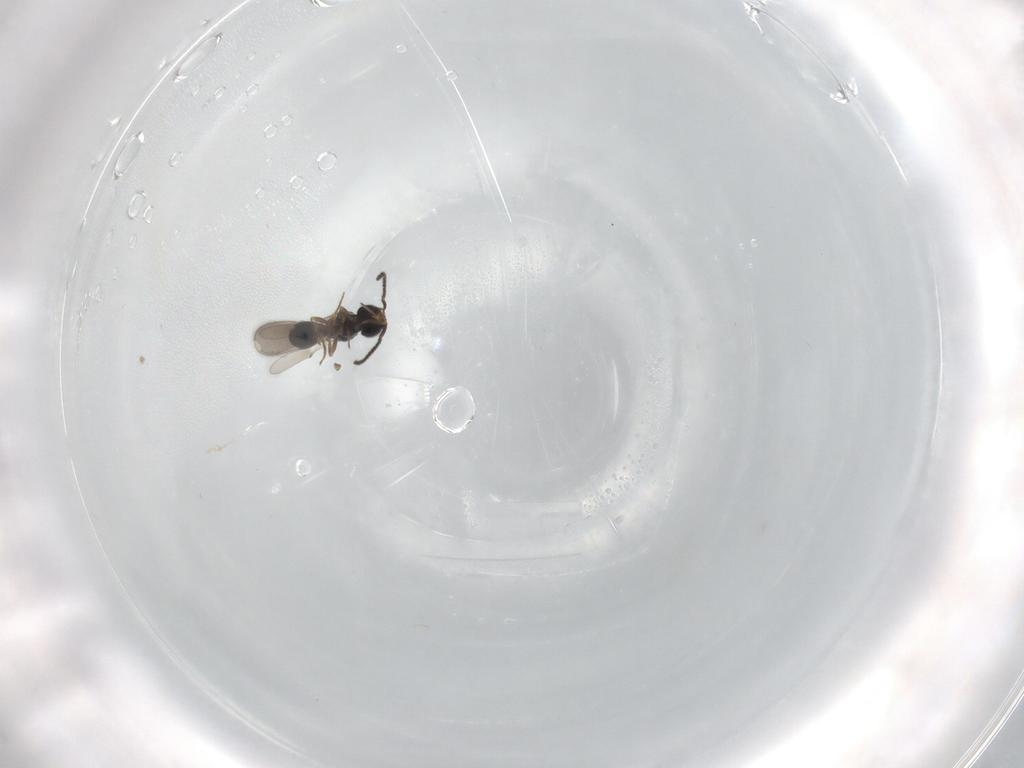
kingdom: Animalia
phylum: Arthropoda
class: Insecta
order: Hymenoptera
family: Scelionidae
